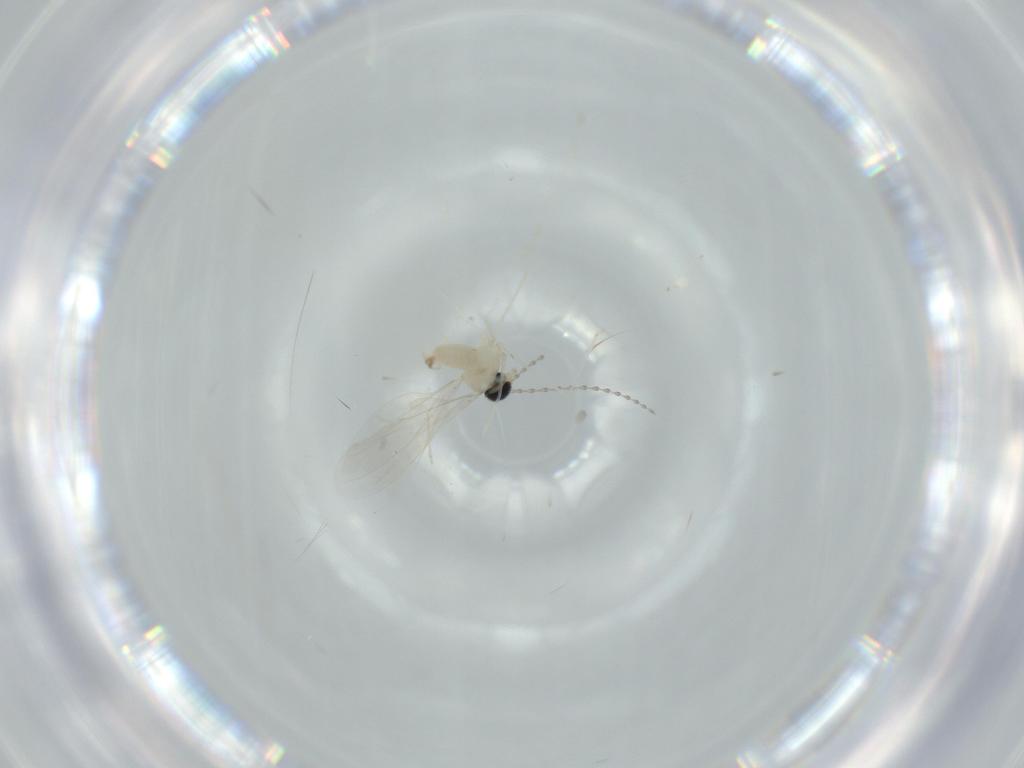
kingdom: Animalia
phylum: Arthropoda
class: Insecta
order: Diptera
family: Cecidomyiidae
